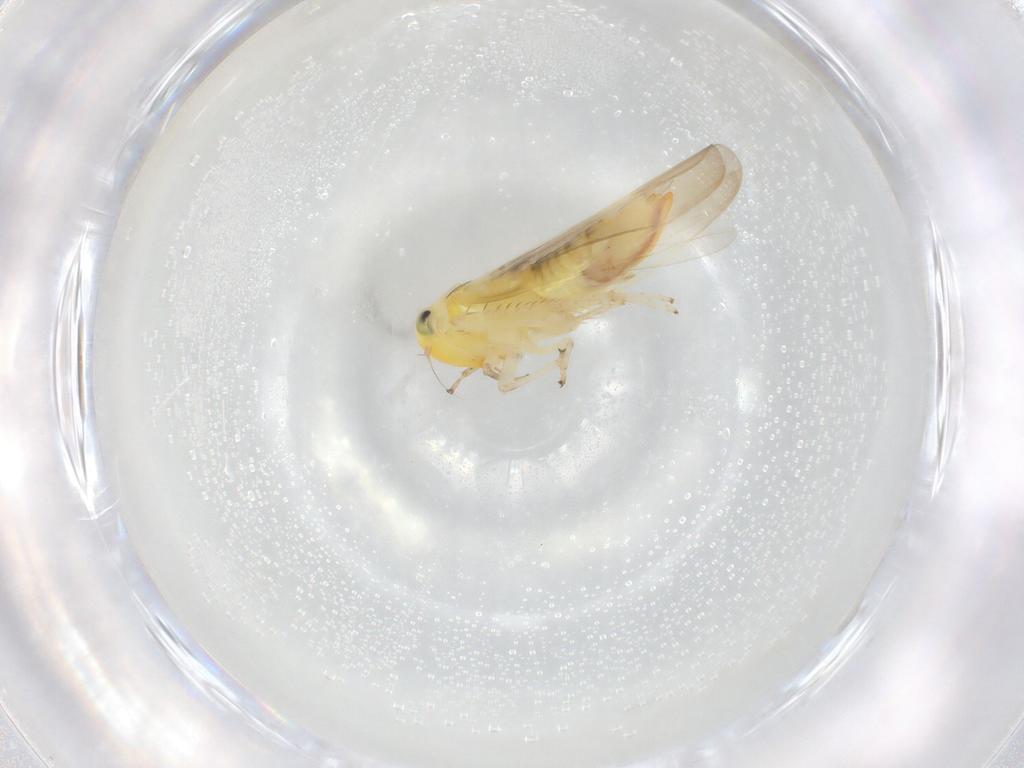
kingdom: Animalia
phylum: Arthropoda
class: Insecta
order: Hemiptera
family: Cicadellidae
